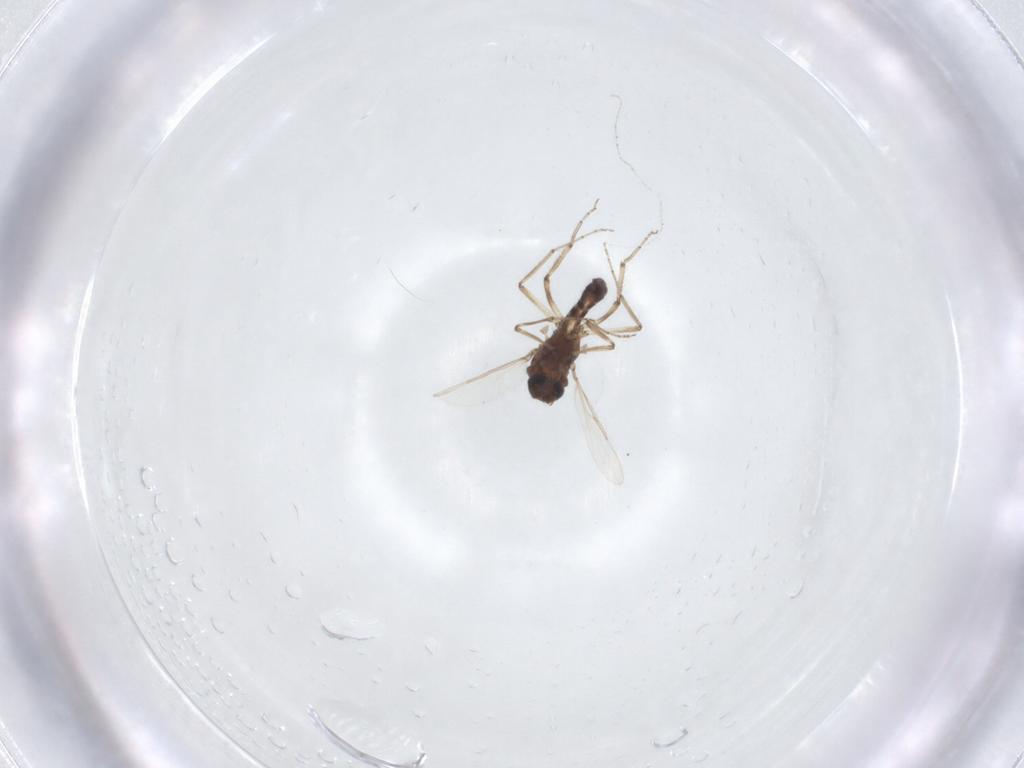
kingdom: Animalia
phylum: Arthropoda
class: Insecta
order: Diptera
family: Ceratopogonidae
